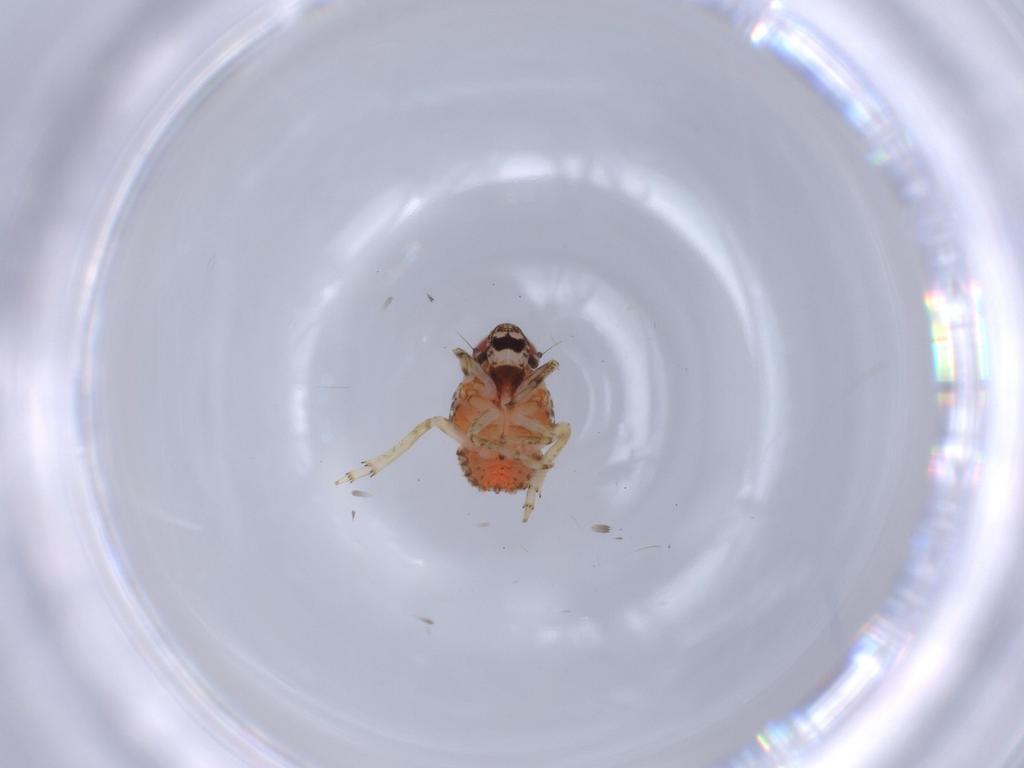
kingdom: Animalia
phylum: Arthropoda
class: Insecta
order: Hemiptera
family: Issidae
